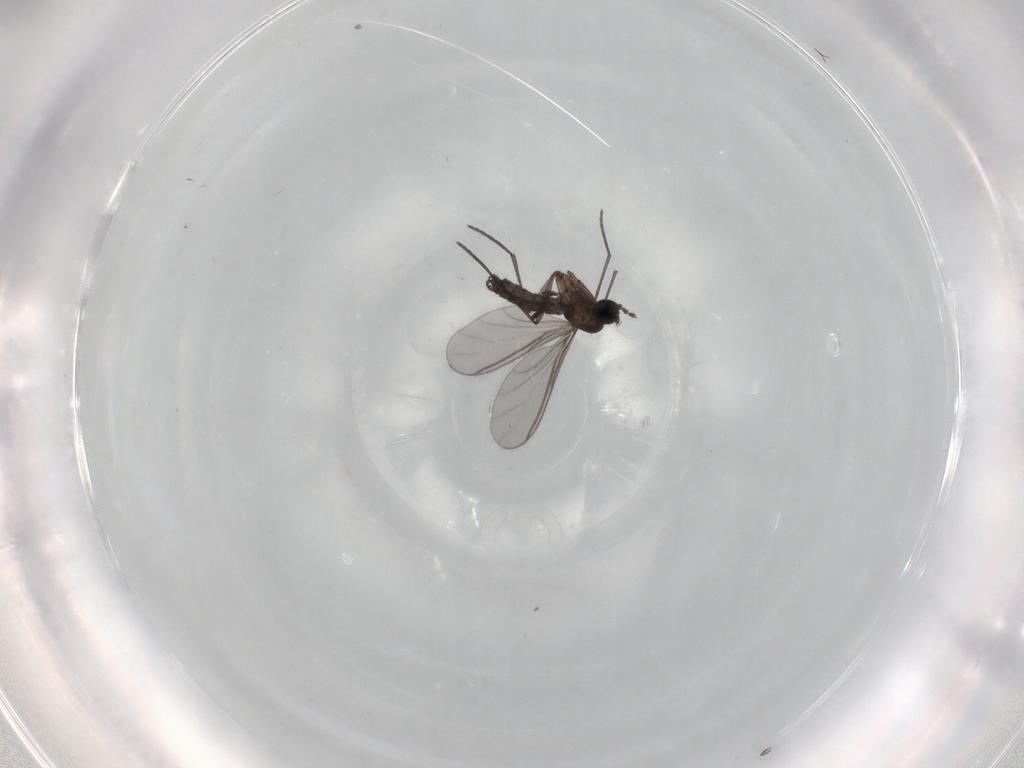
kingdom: Animalia
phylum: Arthropoda
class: Insecta
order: Diptera
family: Sciaridae
